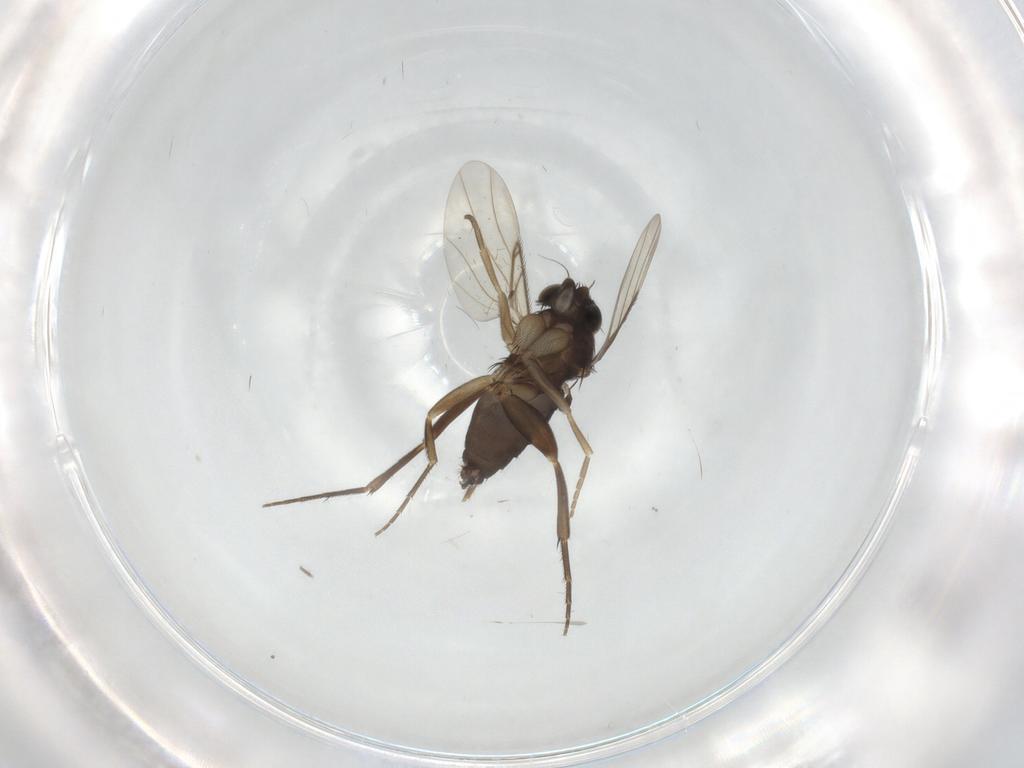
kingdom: Animalia
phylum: Arthropoda
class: Insecta
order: Diptera
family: Phoridae
